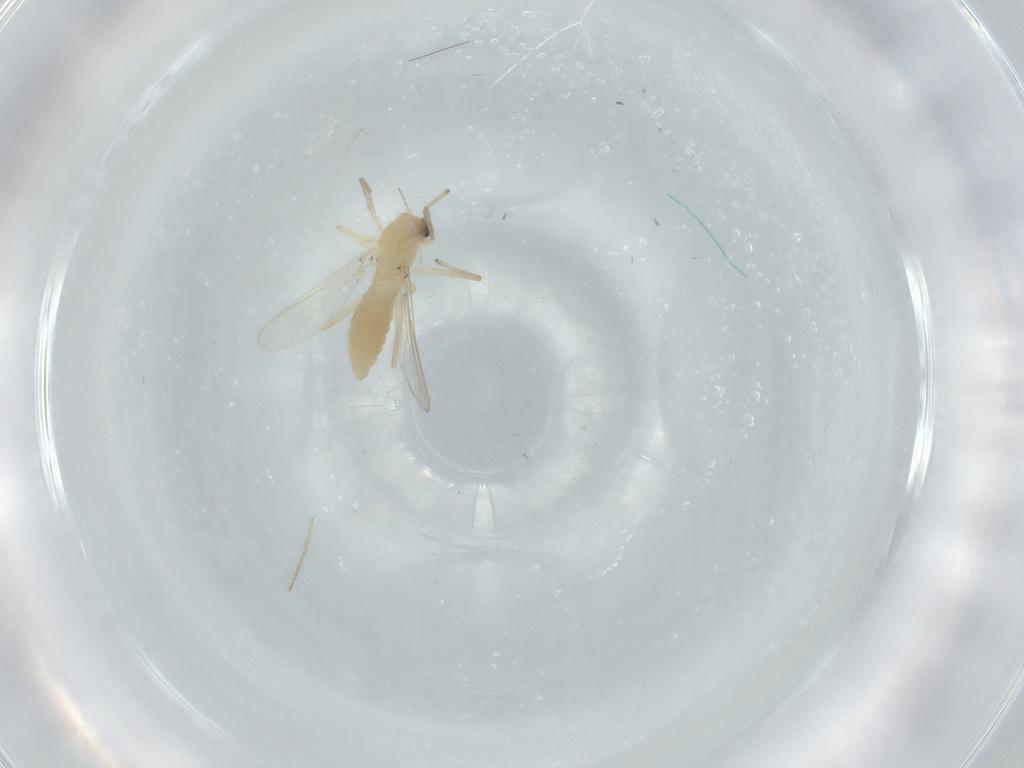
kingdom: Animalia
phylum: Arthropoda
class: Insecta
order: Diptera
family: Chironomidae
